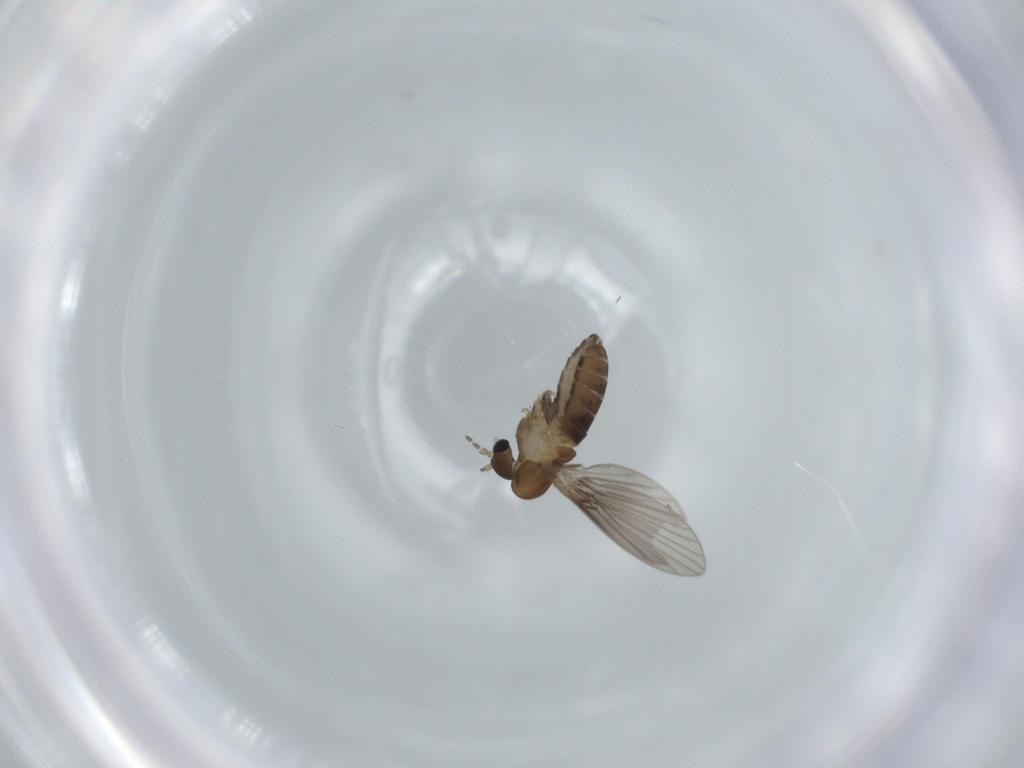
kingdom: Animalia
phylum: Arthropoda
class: Insecta
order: Diptera
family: Psychodidae
